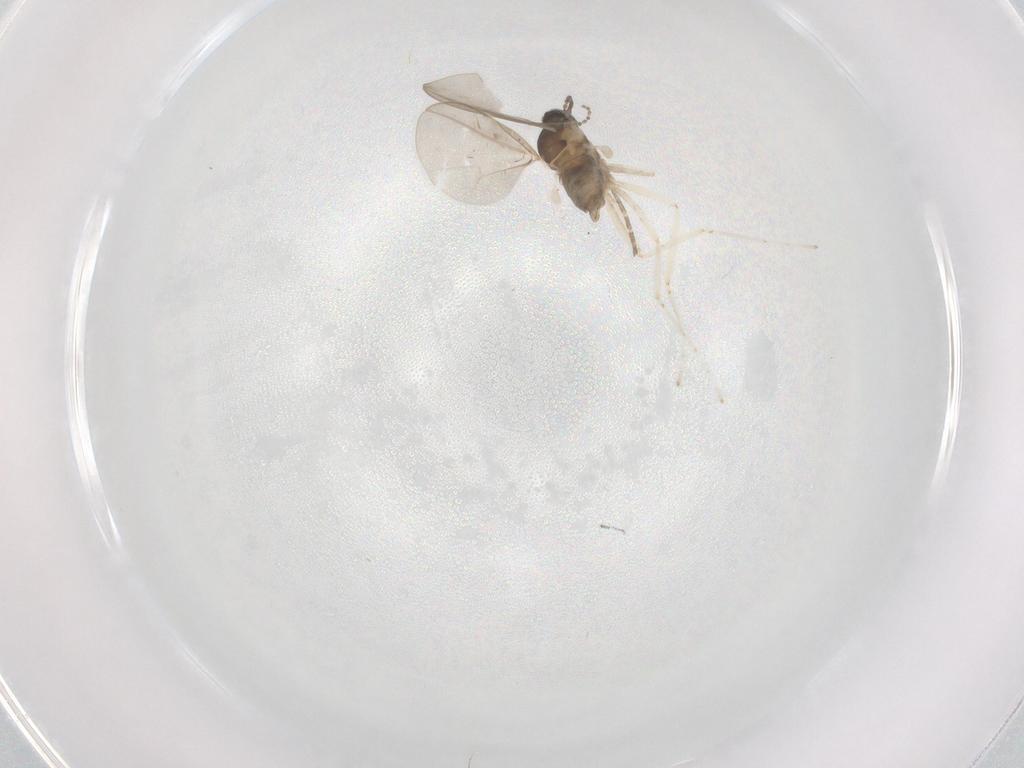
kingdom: Animalia
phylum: Arthropoda
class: Insecta
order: Diptera
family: Cecidomyiidae
